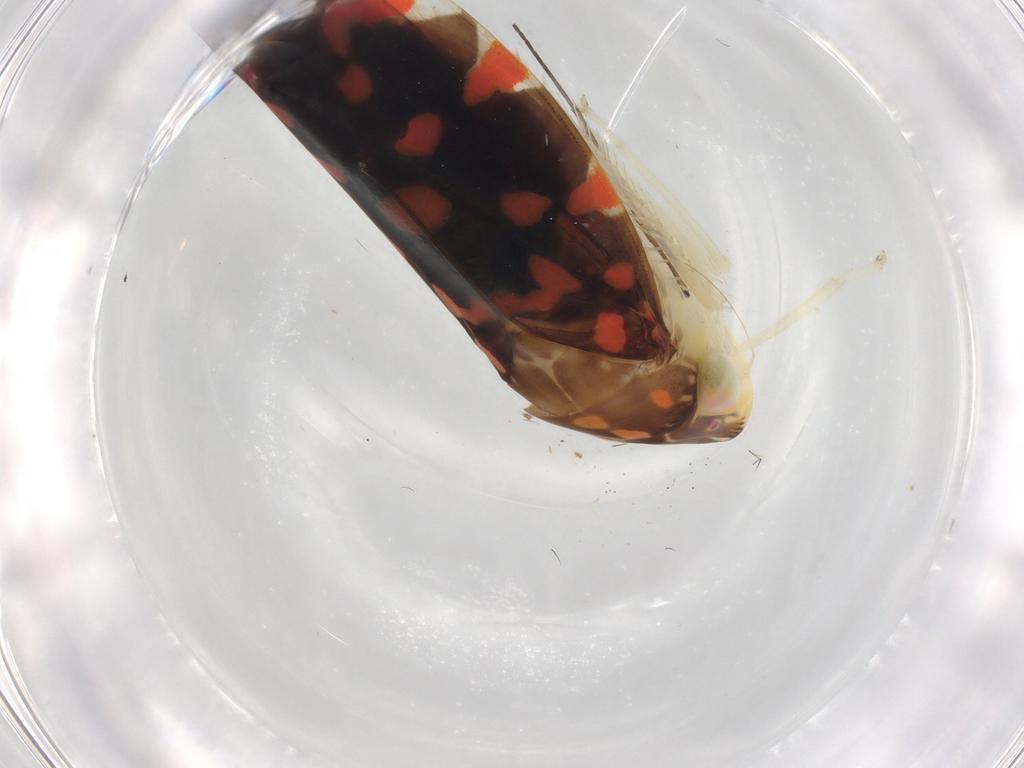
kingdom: Animalia
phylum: Arthropoda
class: Insecta
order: Hemiptera
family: Cicadellidae
